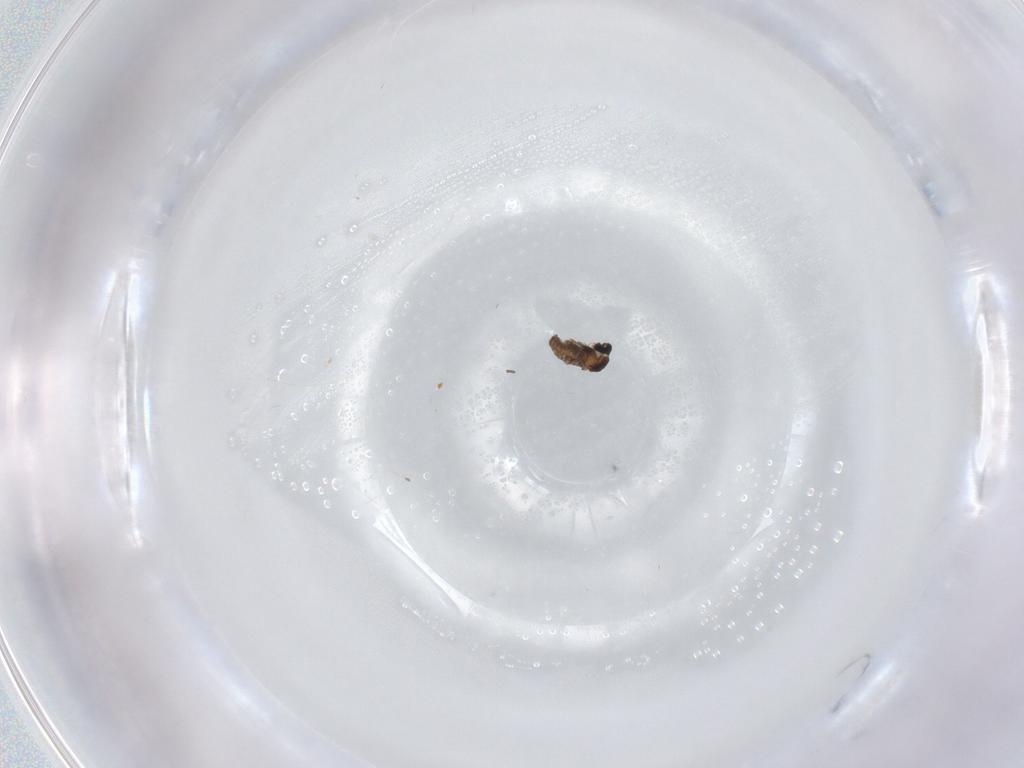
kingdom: Animalia
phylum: Arthropoda
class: Insecta
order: Diptera
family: Cecidomyiidae
